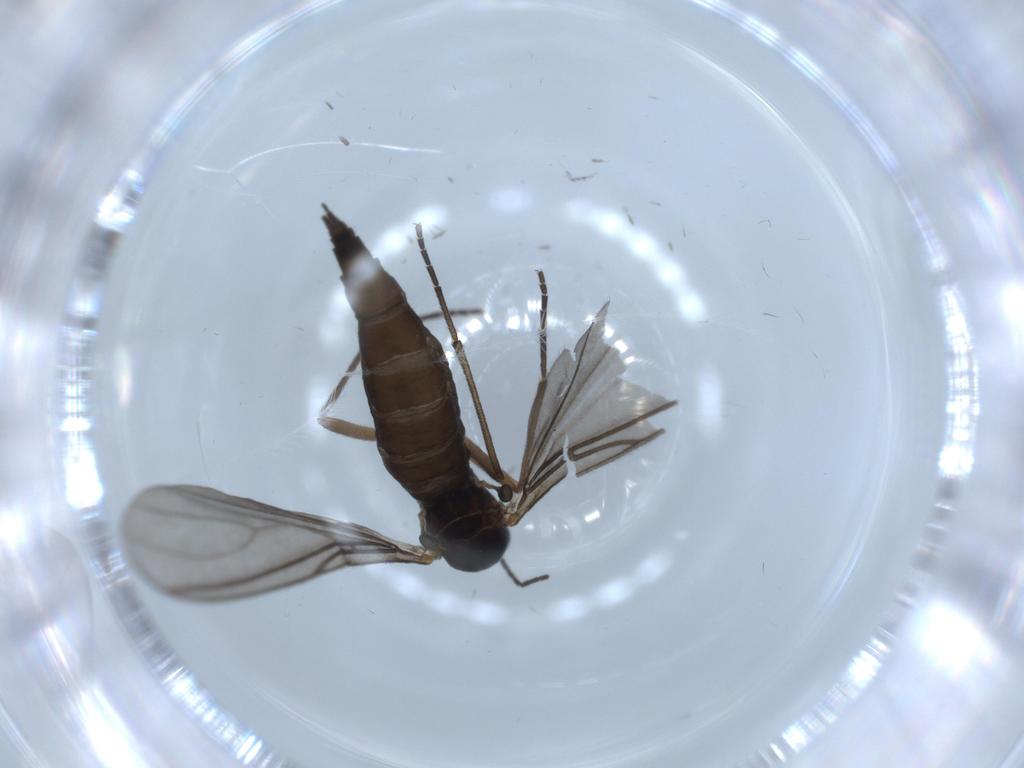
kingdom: Animalia
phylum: Arthropoda
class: Insecta
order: Diptera
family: Sciaridae
